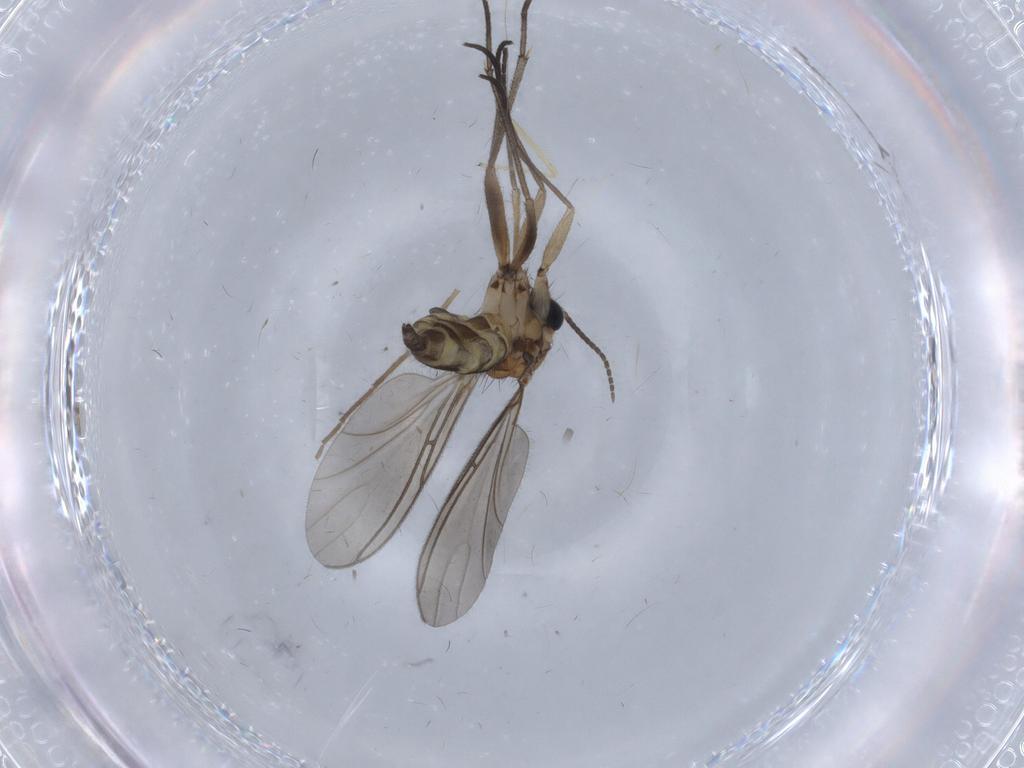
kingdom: Animalia
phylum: Arthropoda
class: Insecta
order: Diptera
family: Sciaridae
